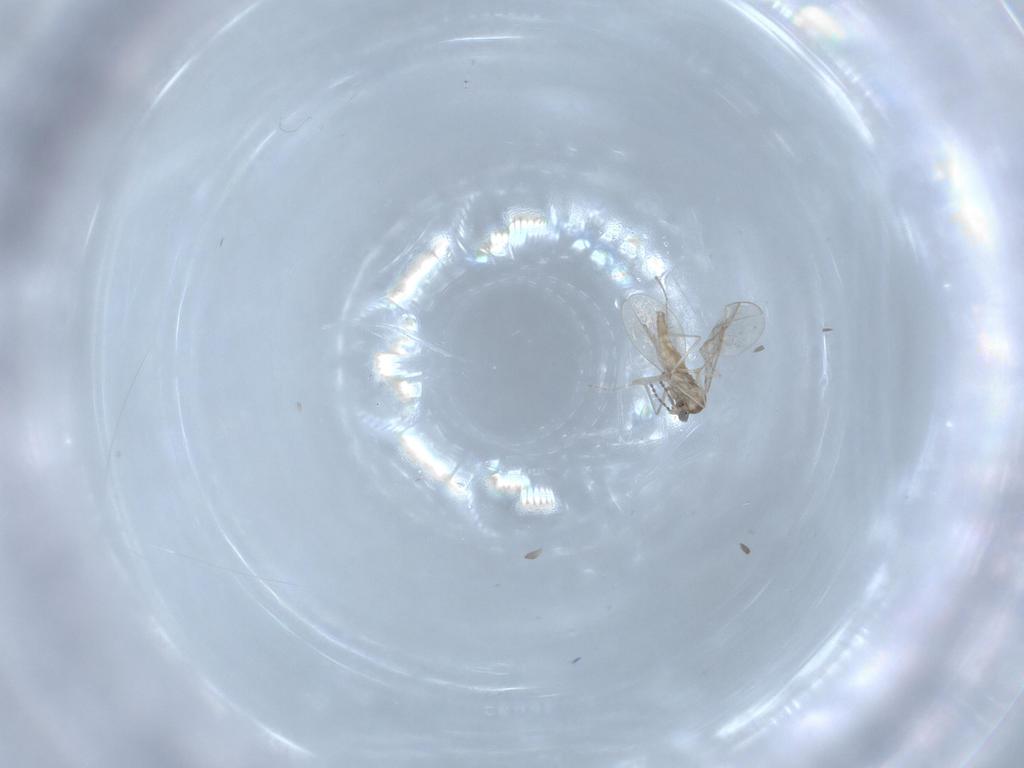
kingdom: Animalia
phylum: Arthropoda
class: Insecta
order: Diptera
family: Cecidomyiidae
